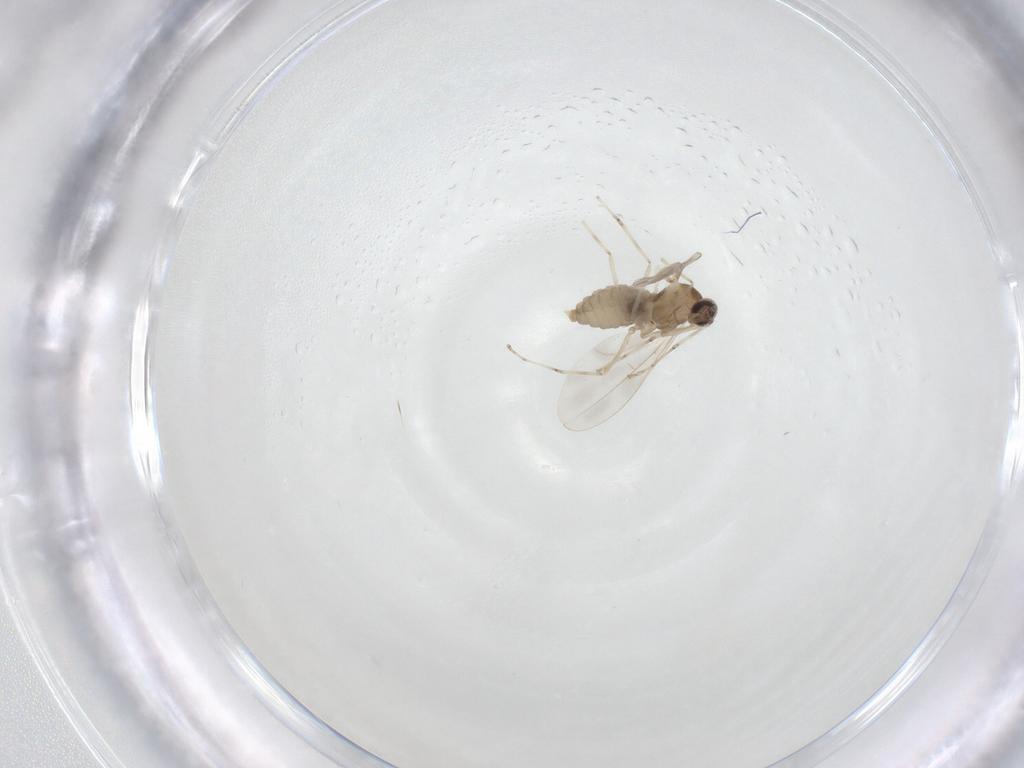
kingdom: Animalia
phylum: Arthropoda
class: Insecta
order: Diptera
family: Cecidomyiidae
